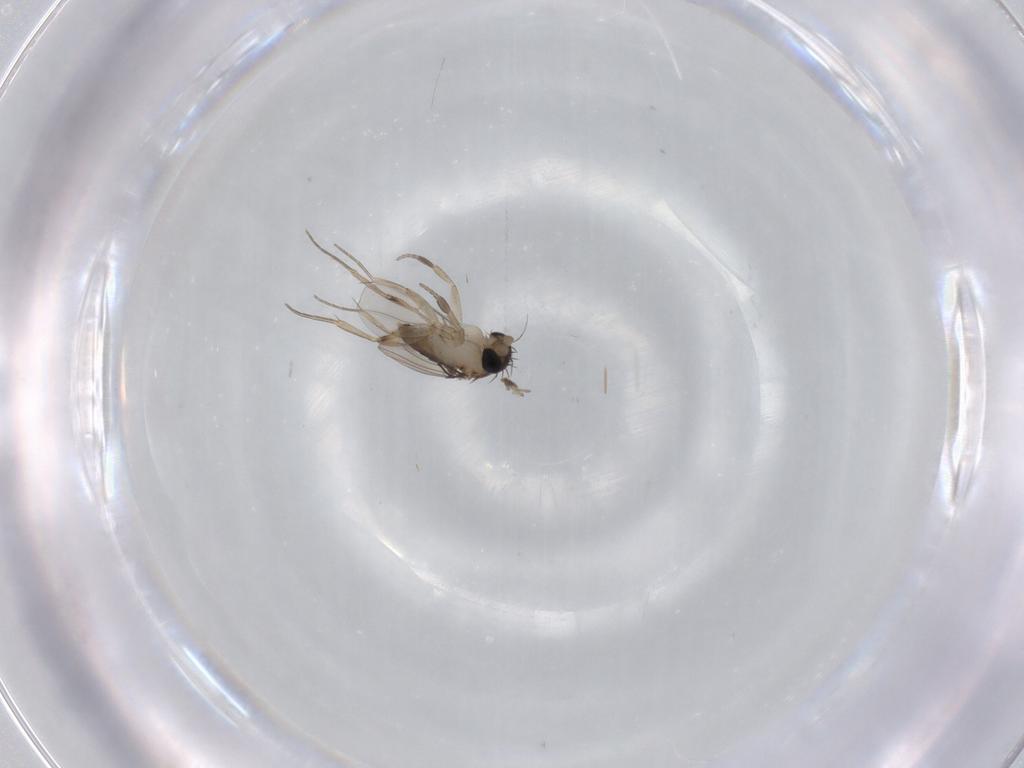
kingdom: Animalia
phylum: Arthropoda
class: Insecta
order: Diptera
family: Phoridae
